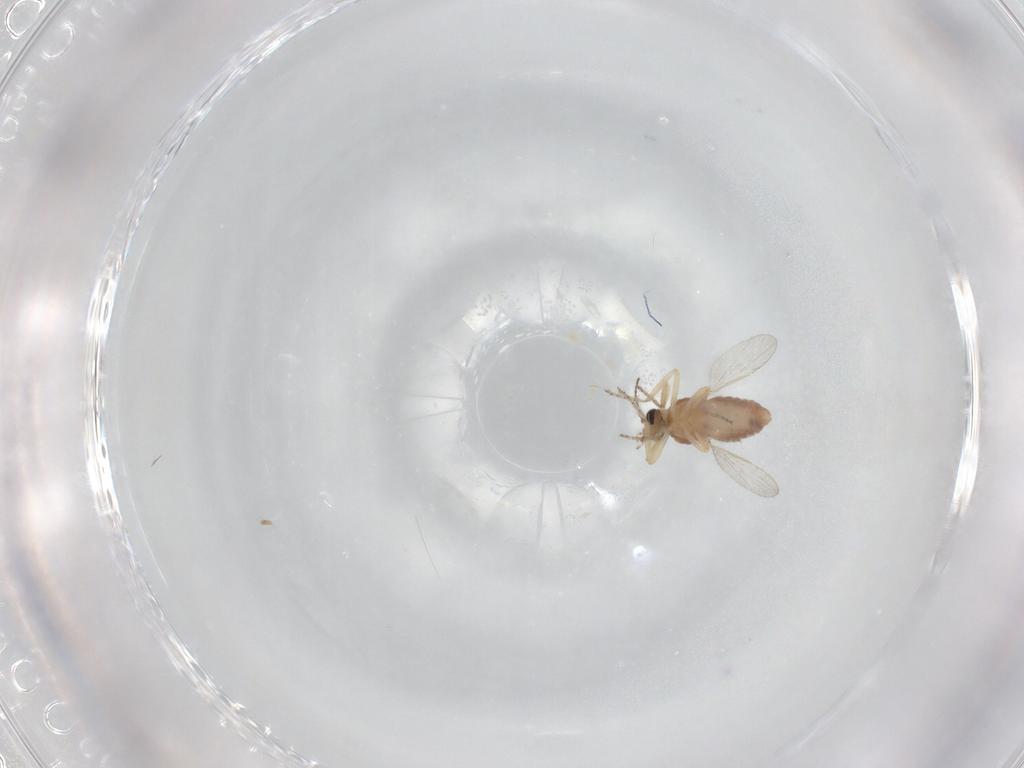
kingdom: Animalia
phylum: Arthropoda
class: Insecta
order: Diptera
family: Ceratopogonidae
